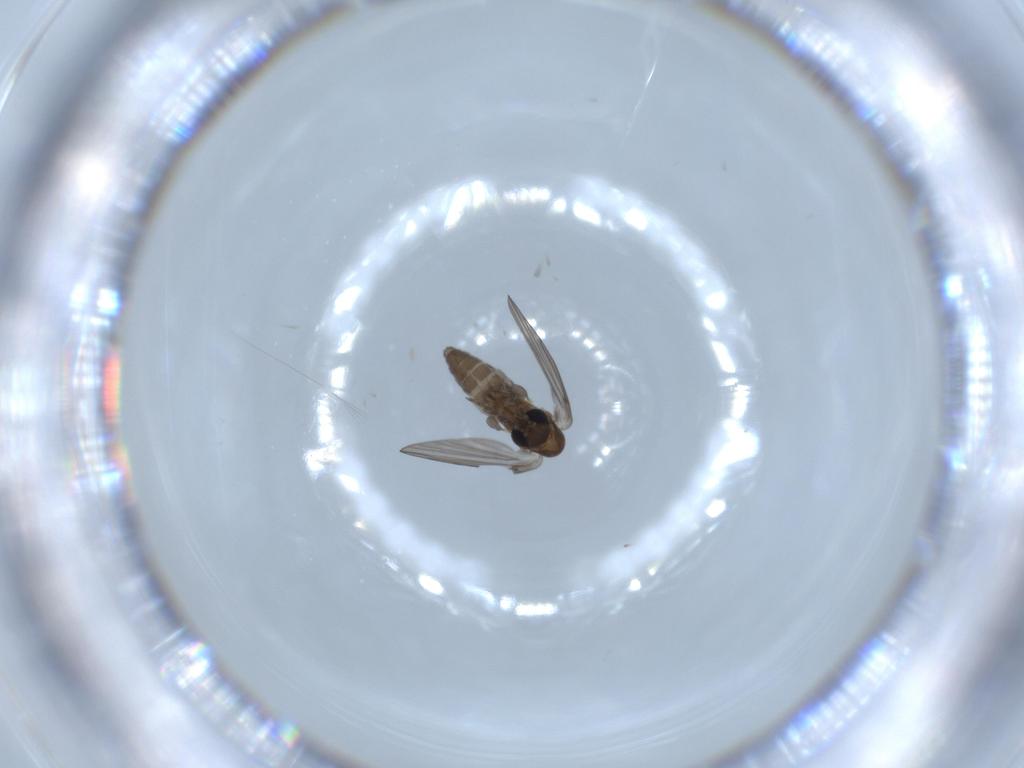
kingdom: Animalia
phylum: Arthropoda
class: Insecta
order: Diptera
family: Psychodidae
